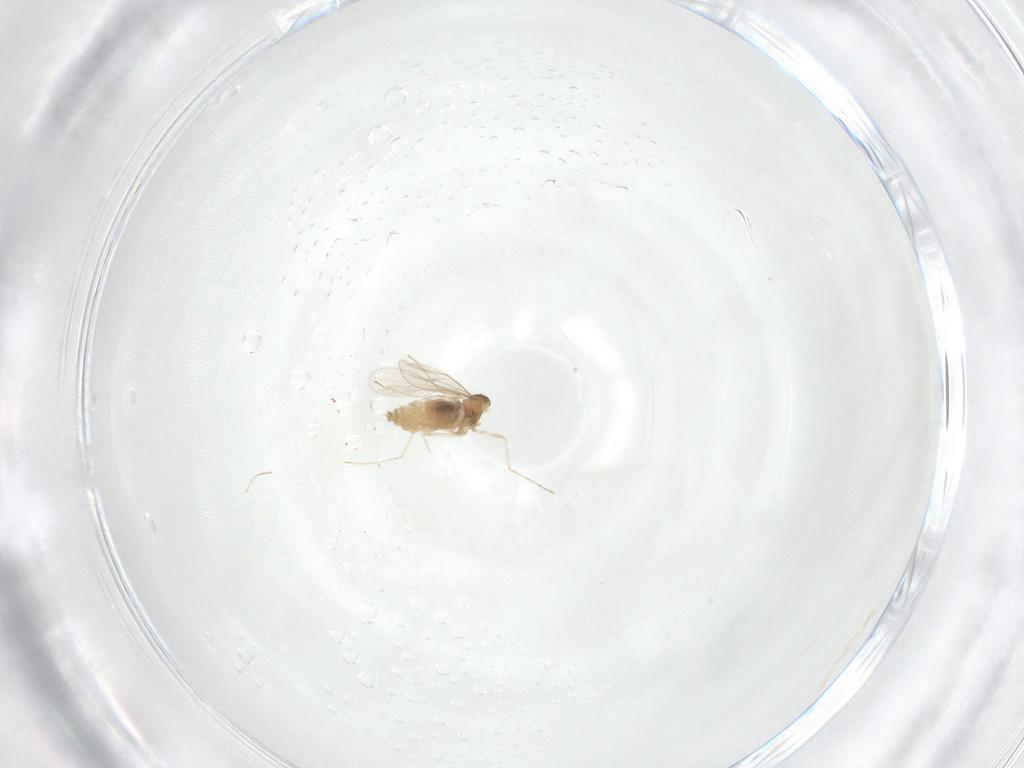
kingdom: Animalia
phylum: Arthropoda
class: Insecta
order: Diptera
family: Cecidomyiidae
